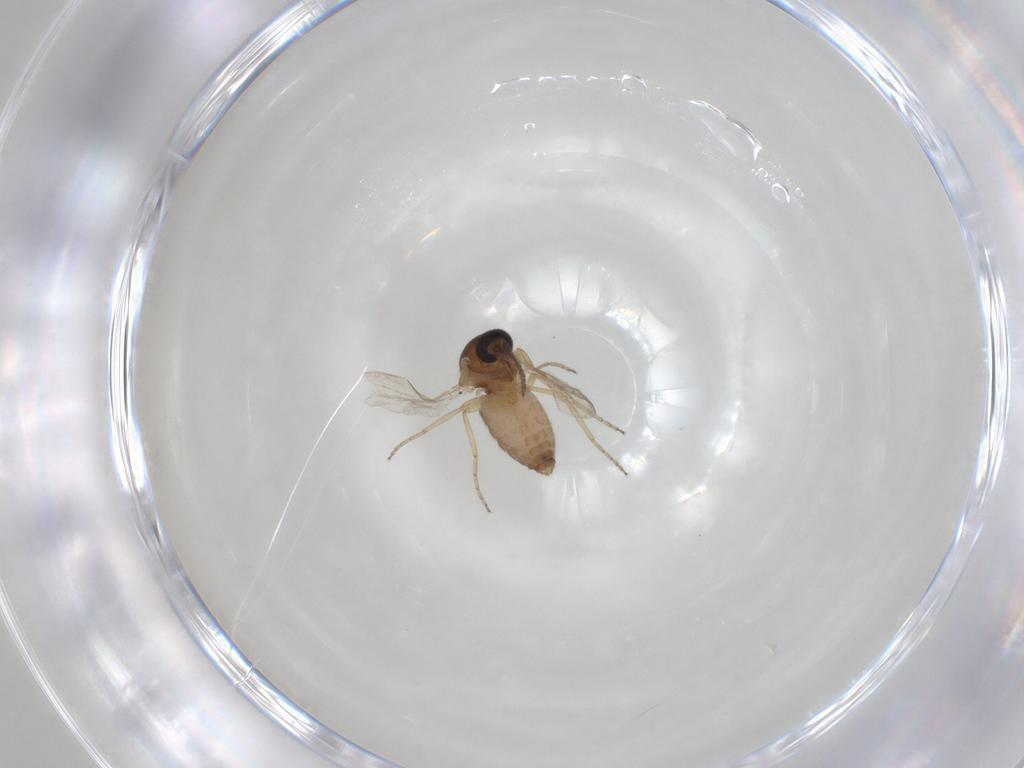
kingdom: Animalia
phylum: Arthropoda
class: Insecta
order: Diptera
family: Ceratopogonidae
